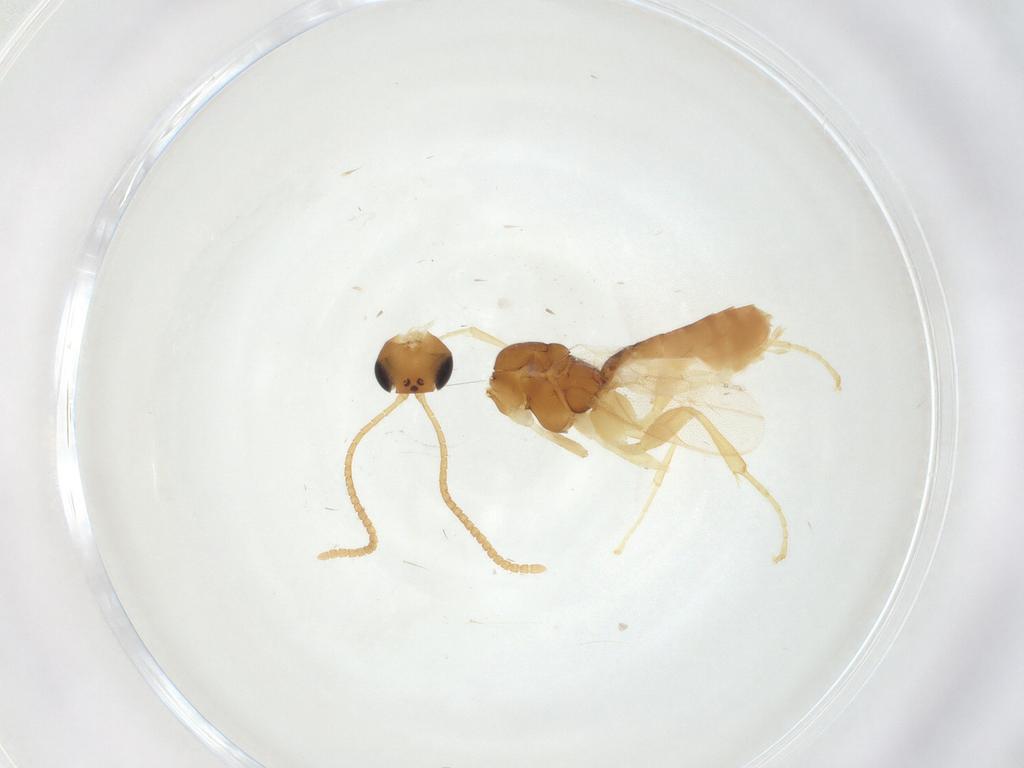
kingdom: Animalia
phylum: Arthropoda
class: Insecta
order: Hymenoptera
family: Ichneumonidae
